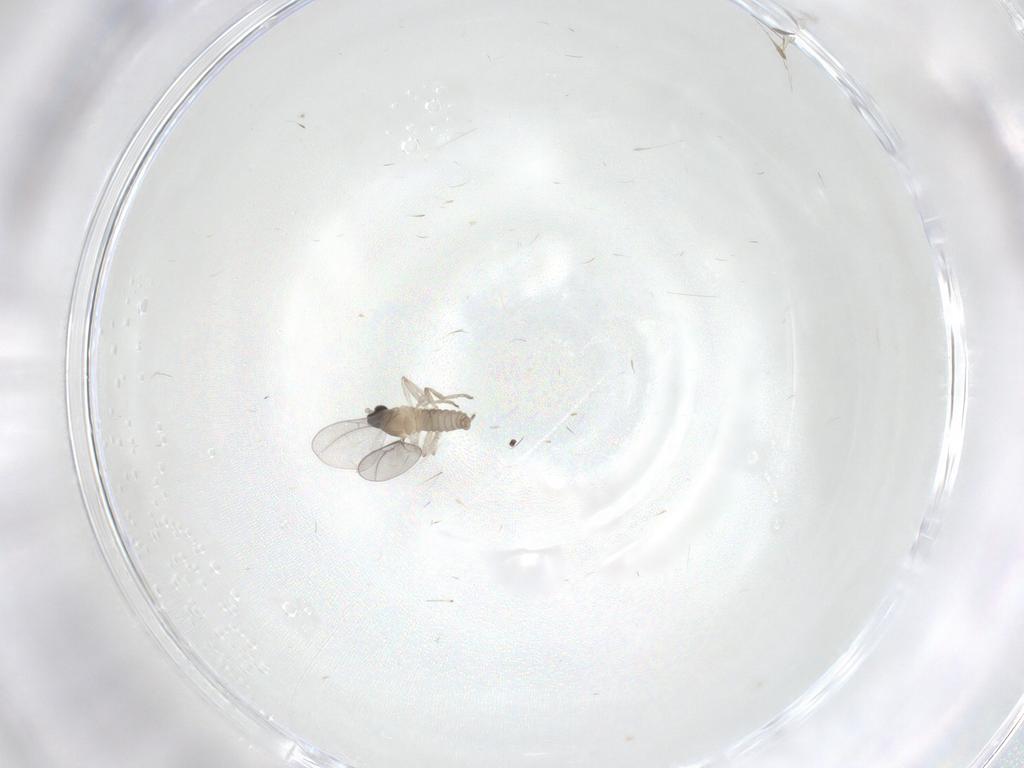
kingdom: Animalia
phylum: Arthropoda
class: Insecta
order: Diptera
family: Cecidomyiidae
